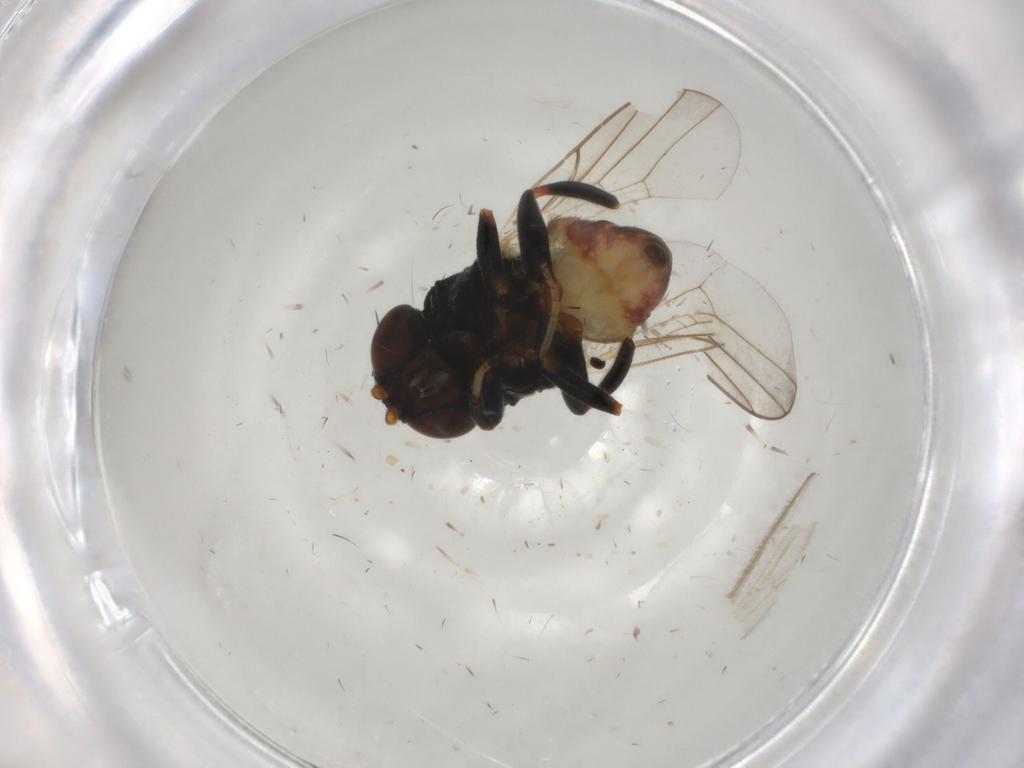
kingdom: Animalia
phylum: Arthropoda
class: Insecta
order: Diptera
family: Chloropidae
